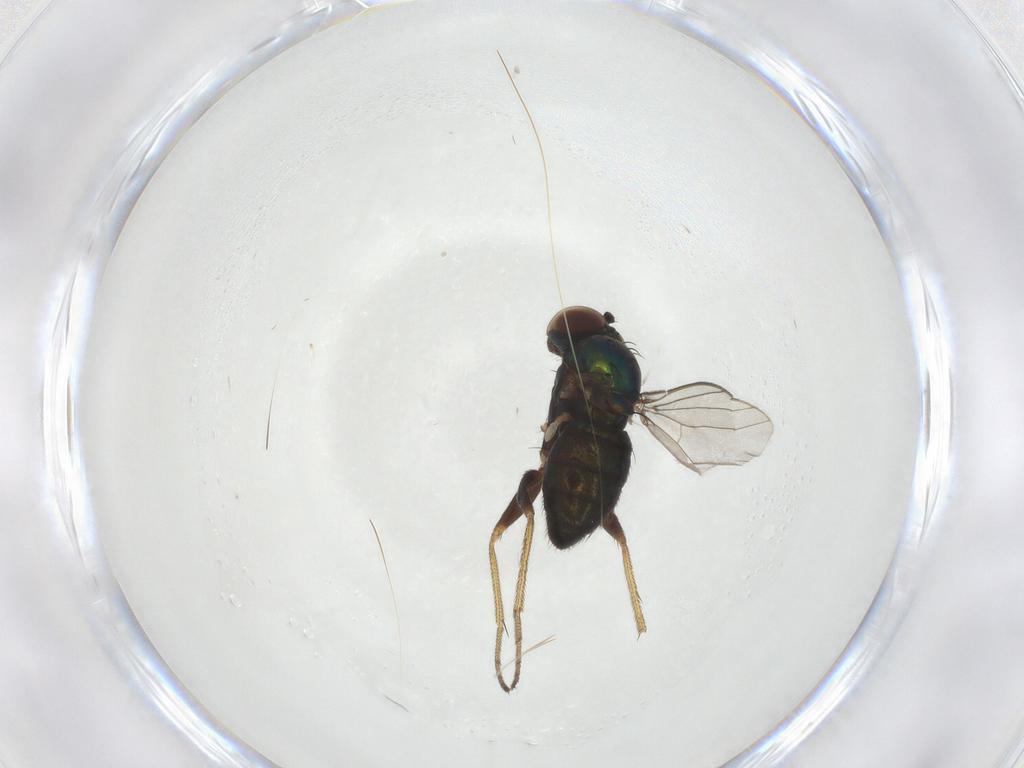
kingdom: Animalia
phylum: Arthropoda
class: Insecta
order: Diptera
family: Dolichopodidae
